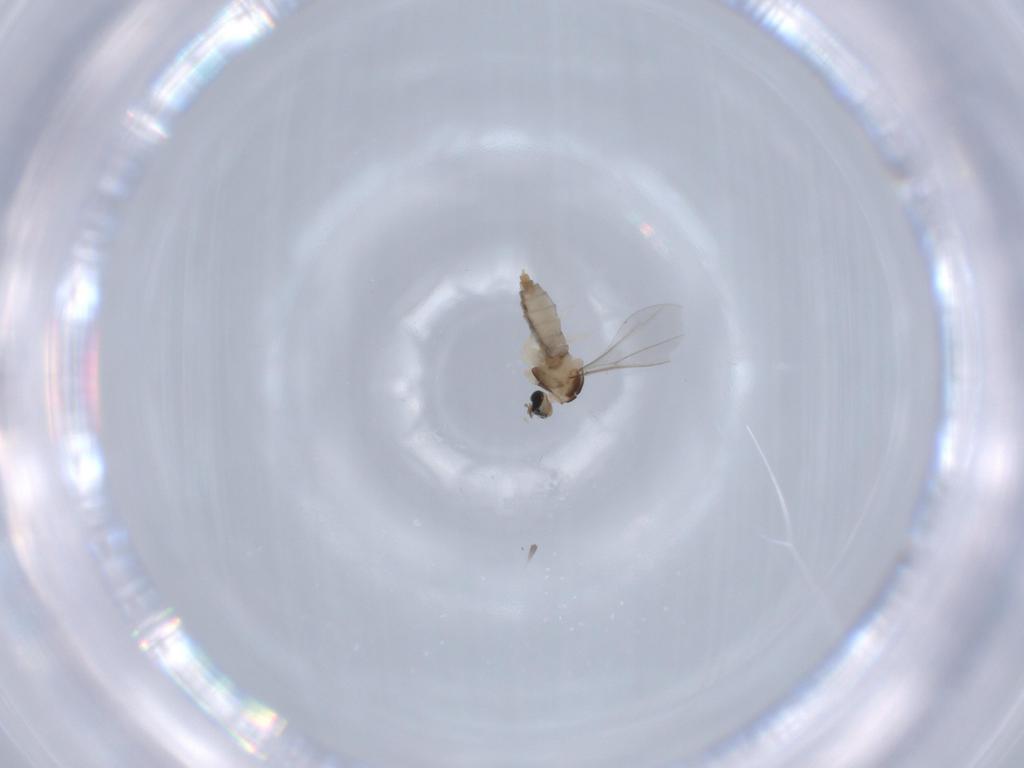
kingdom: Animalia
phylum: Arthropoda
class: Insecta
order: Diptera
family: Sciaridae
